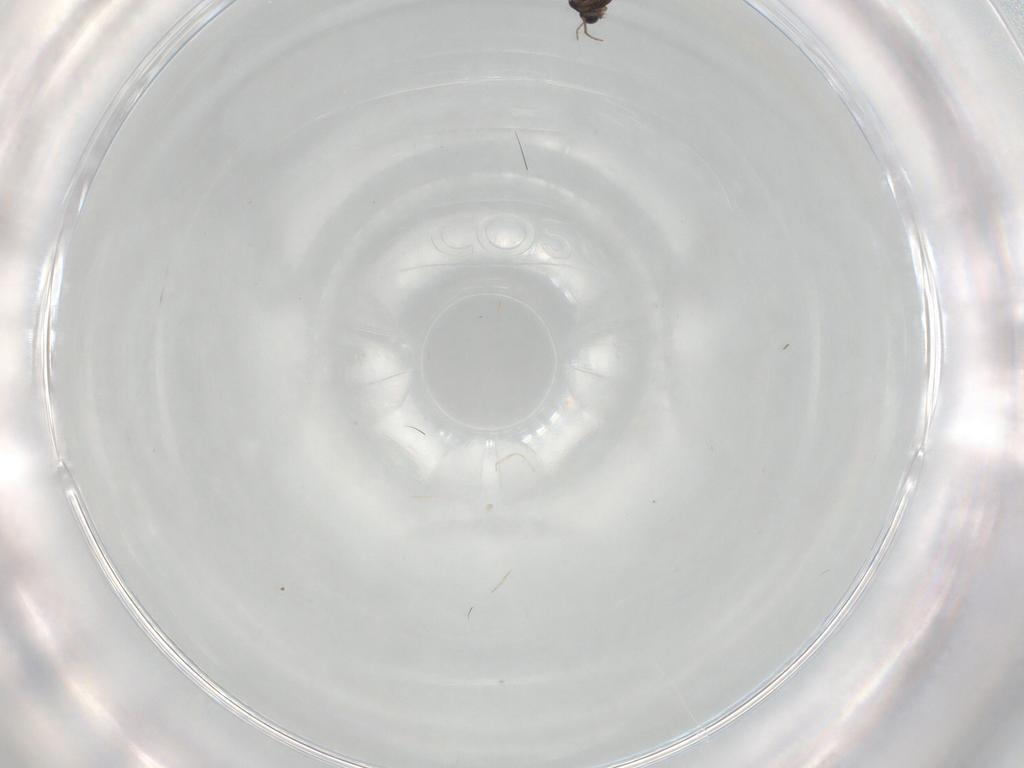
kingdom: Animalia
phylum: Arthropoda
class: Insecta
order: Diptera
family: Chironomidae
